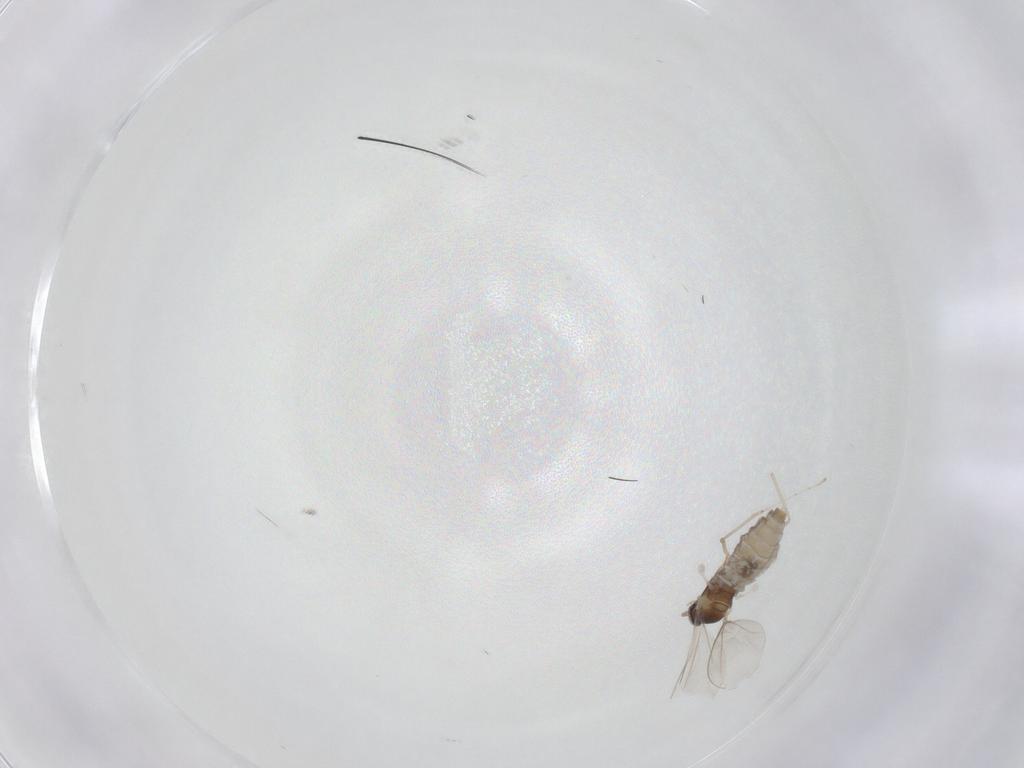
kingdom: Animalia
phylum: Arthropoda
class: Insecta
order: Diptera
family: Cecidomyiidae
